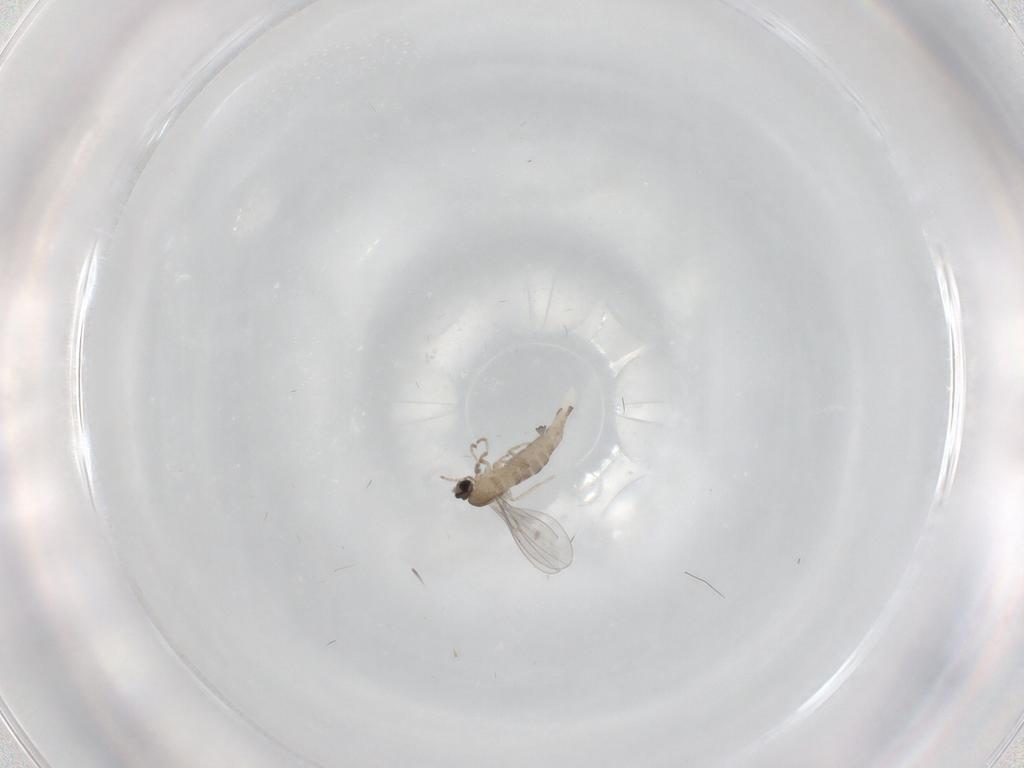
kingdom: Animalia
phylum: Arthropoda
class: Insecta
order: Diptera
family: Cecidomyiidae
